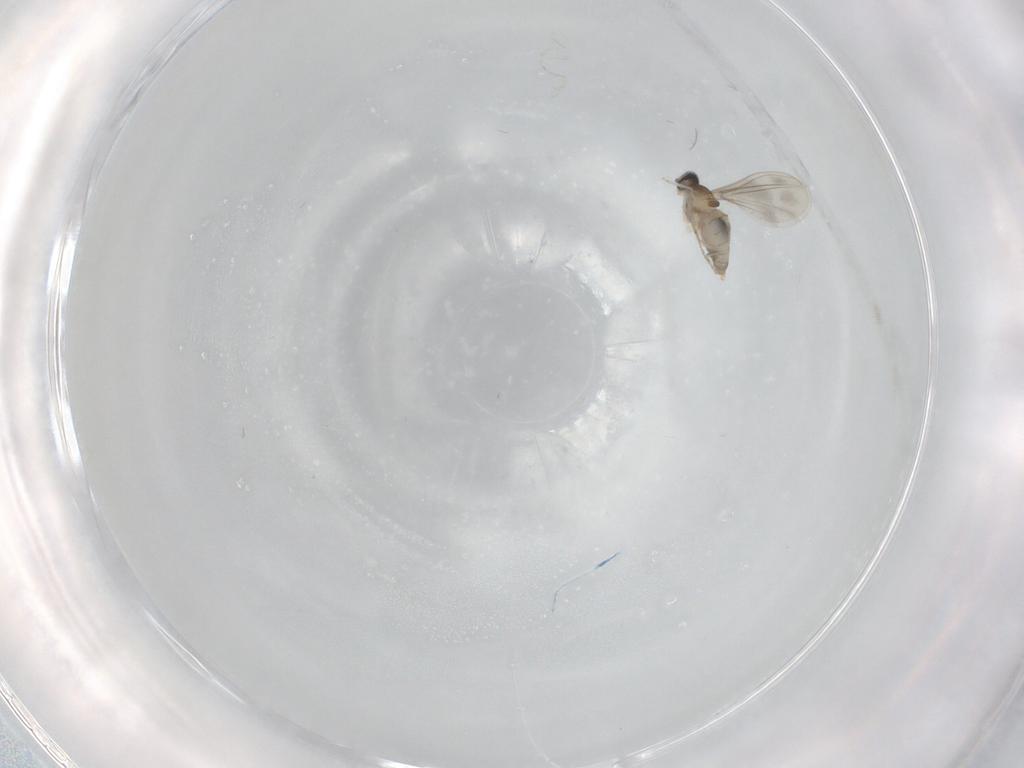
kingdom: Animalia
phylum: Arthropoda
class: Insecta
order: Diptera
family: Cecidomyiidae
